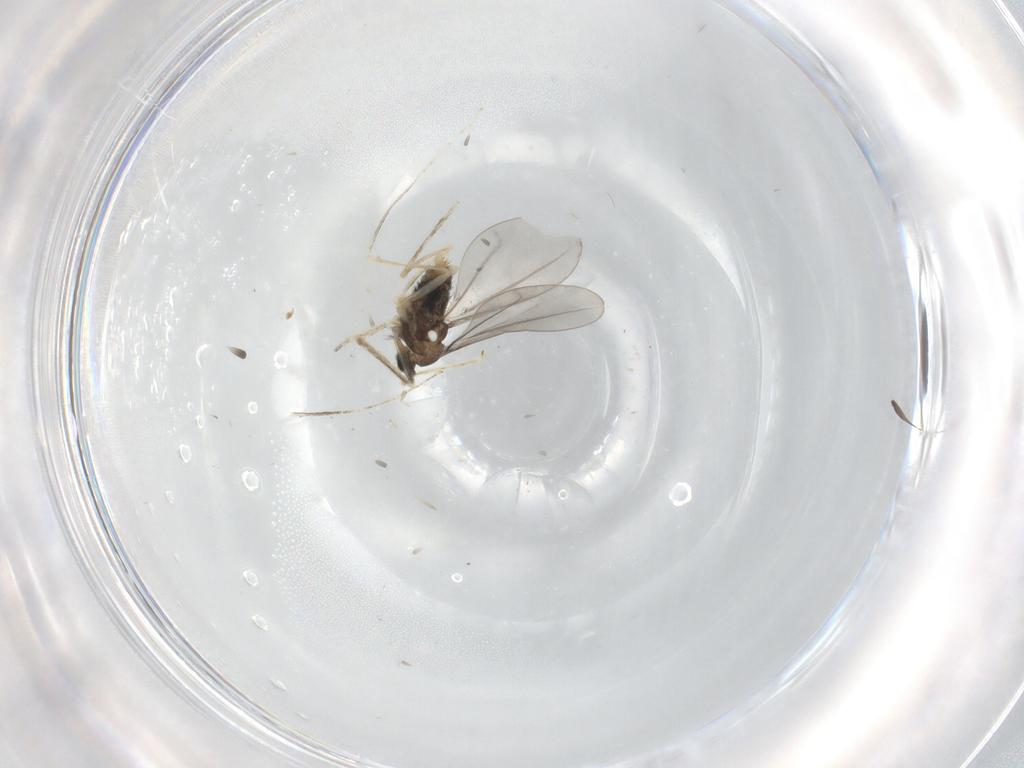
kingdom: Animalia
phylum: Arthropoda
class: Insecta
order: Diptera
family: Cecidomyiidae
